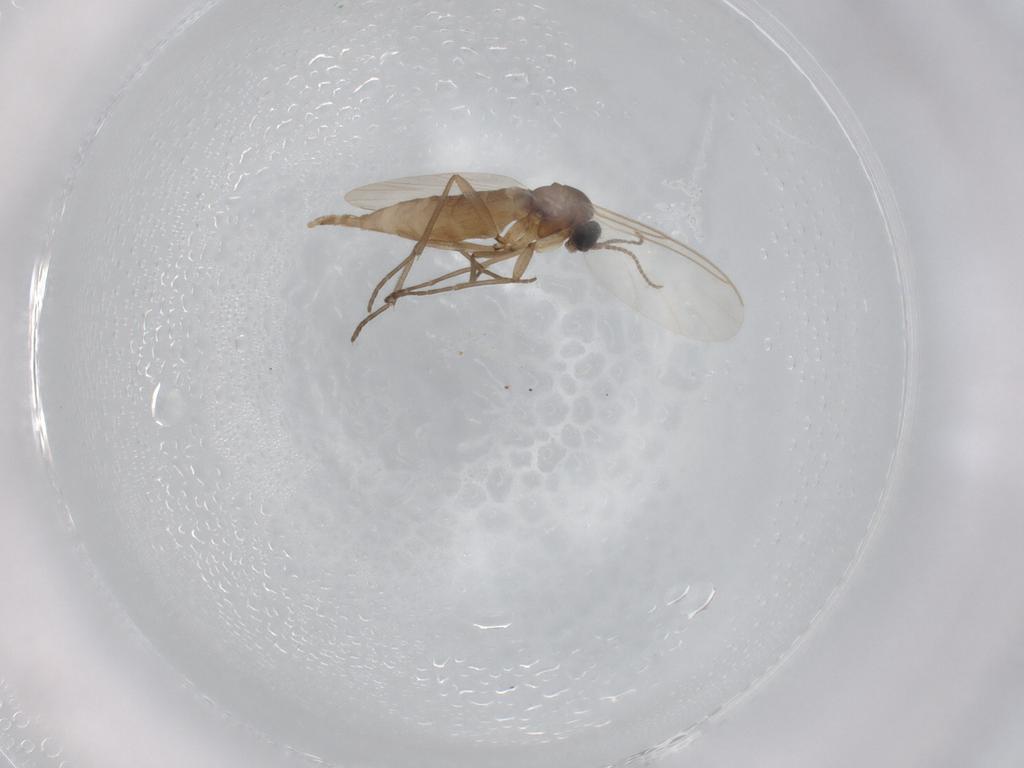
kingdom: Animalia
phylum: Arthropoda
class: Insecta
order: Diptera
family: Sciaridae
